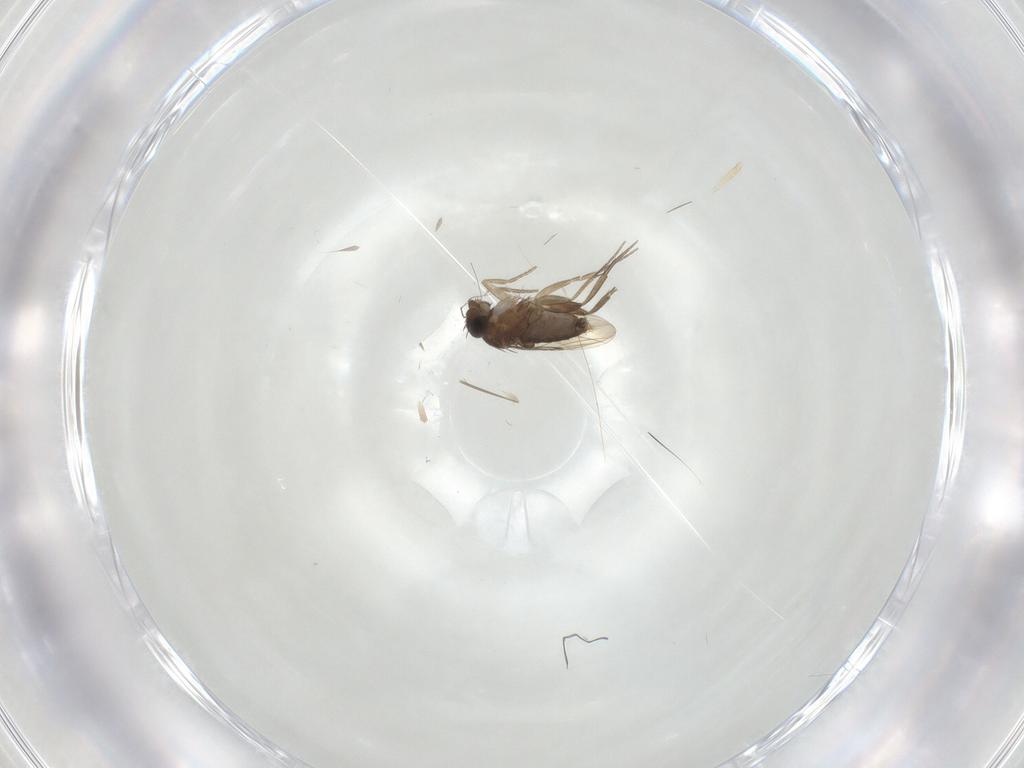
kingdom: Animalia
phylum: Arthropoda
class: Insecta
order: Diptera
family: Phoridae
